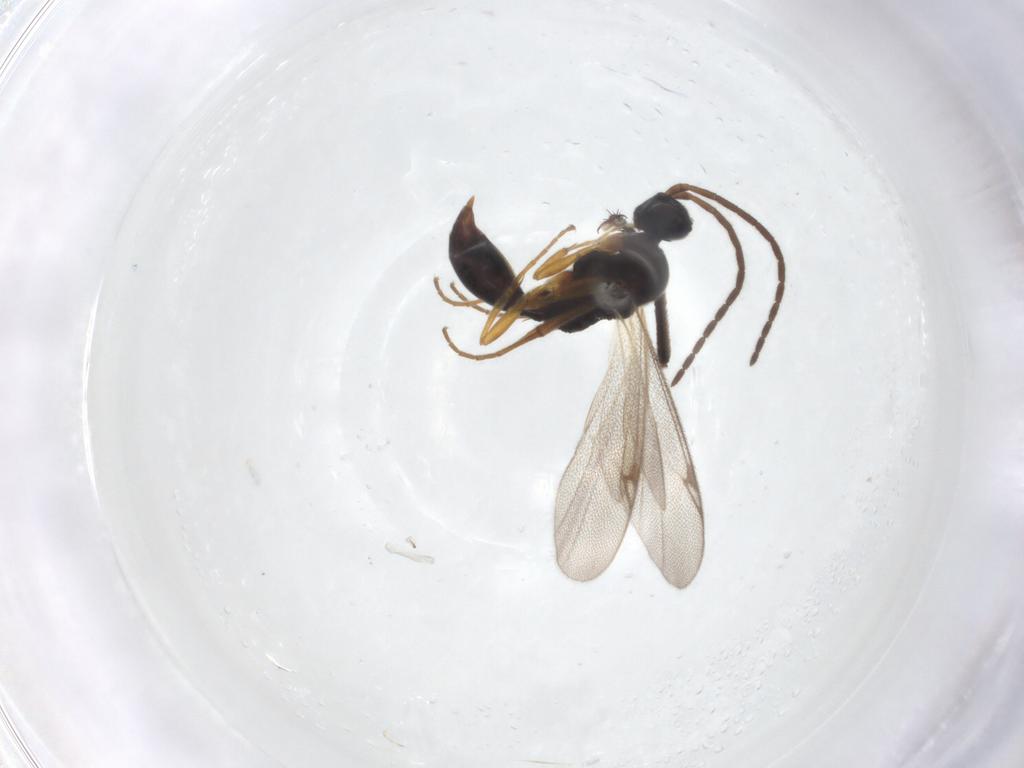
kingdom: Animalia
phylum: Arthropoda
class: Insecta
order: Hymenoptera
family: Proctotrupidae
